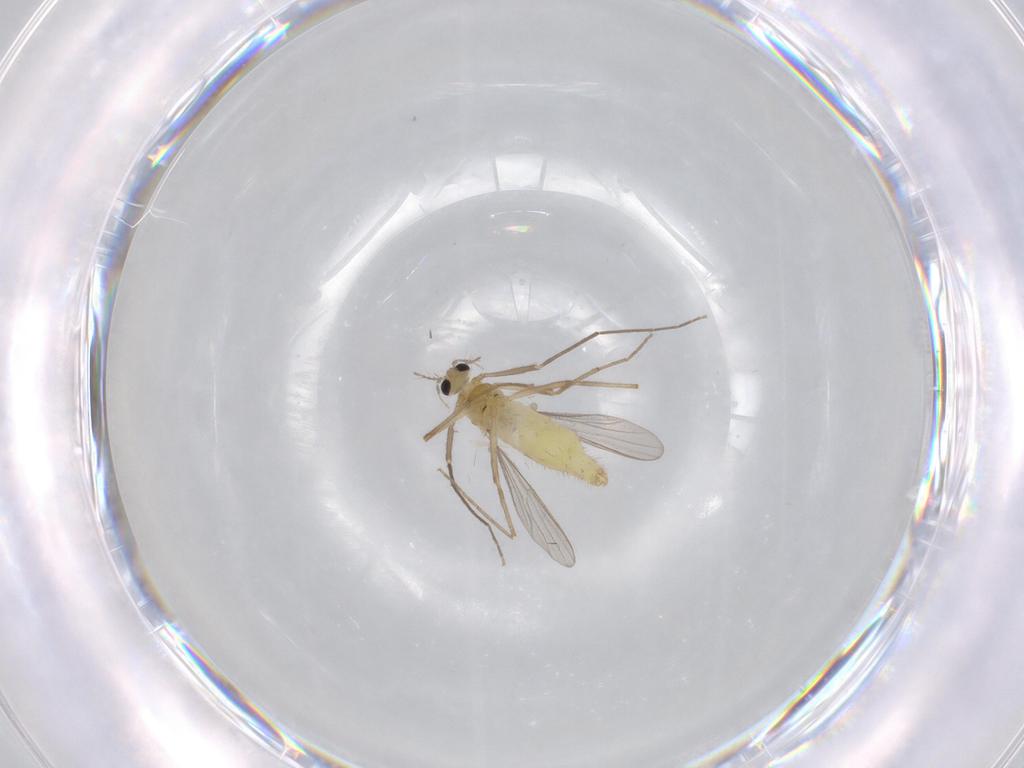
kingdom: Animalia
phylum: Arthropoda
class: Insecta
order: Diptera
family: Chironomidae
